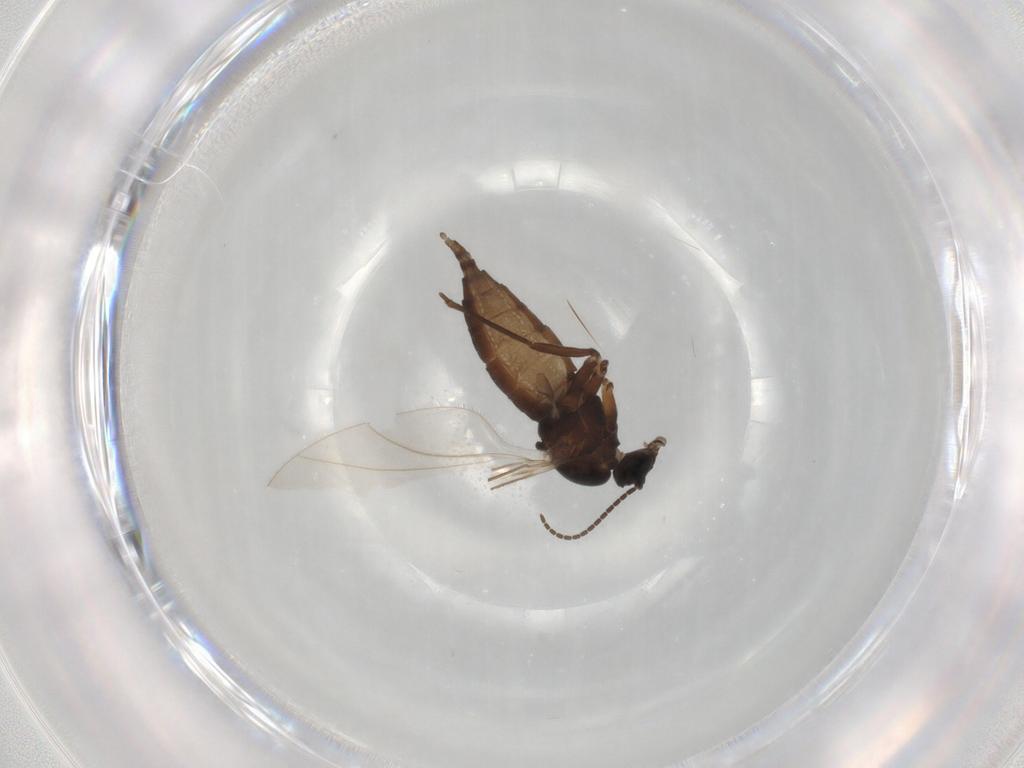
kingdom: Animalia
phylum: Arthropoda
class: Insecta
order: Diptera
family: Sciaridae
